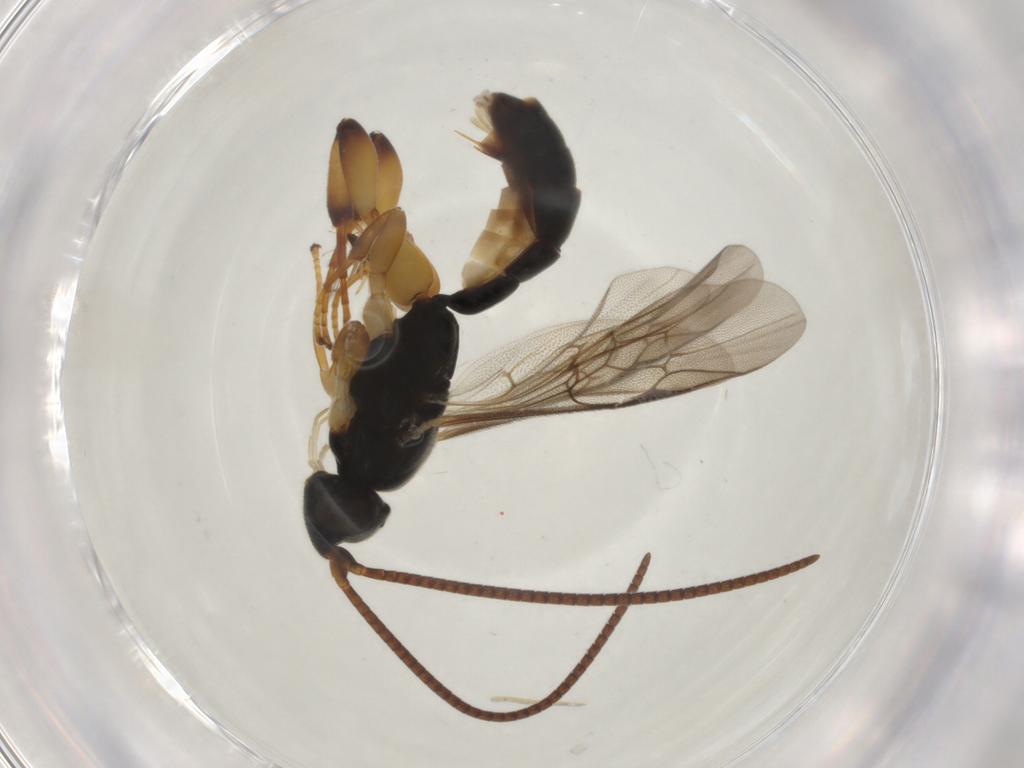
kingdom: Animalia
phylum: Arthropoda
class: Insecta
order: Hymenoptera
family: Ichneumonidae
